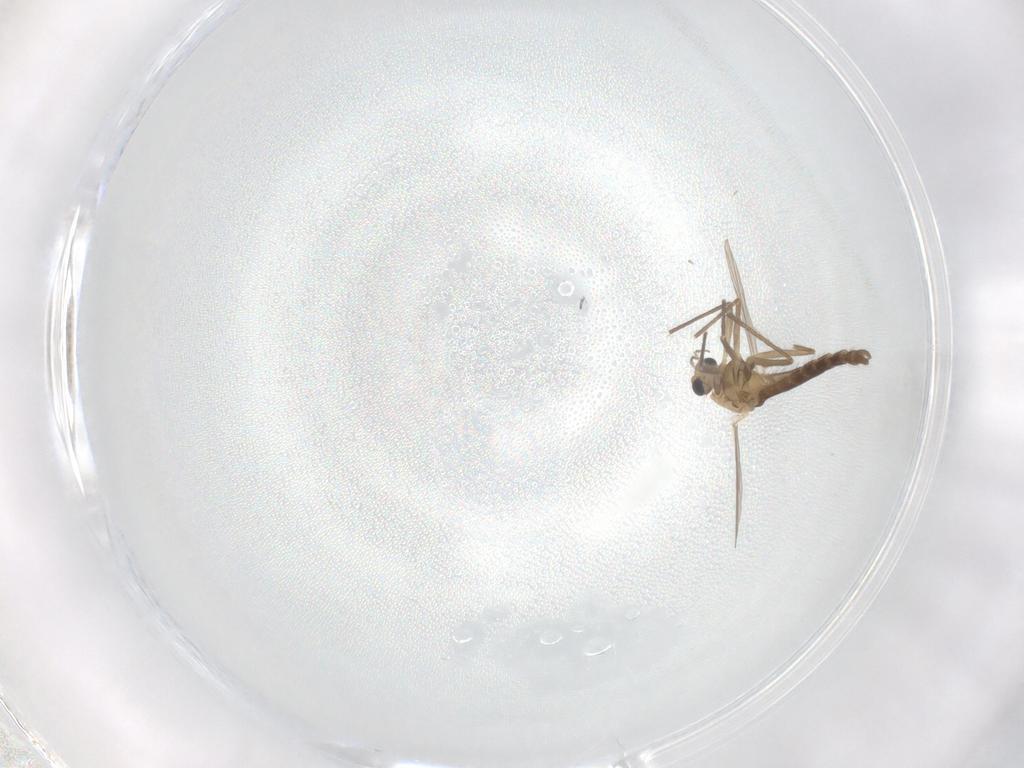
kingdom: Animalia
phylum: Arthropoda
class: Insecta
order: Diptera
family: Chironomidae
